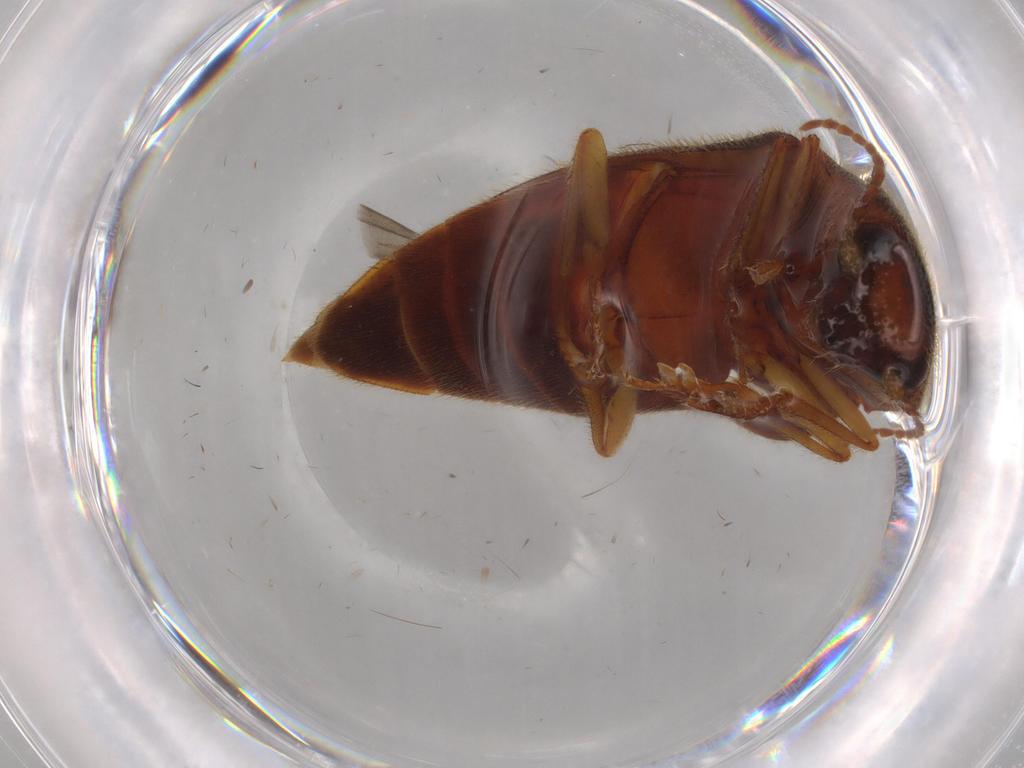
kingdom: Animalia
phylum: Arthropoda
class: Insecta
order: Coleoptera
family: Elateridae
